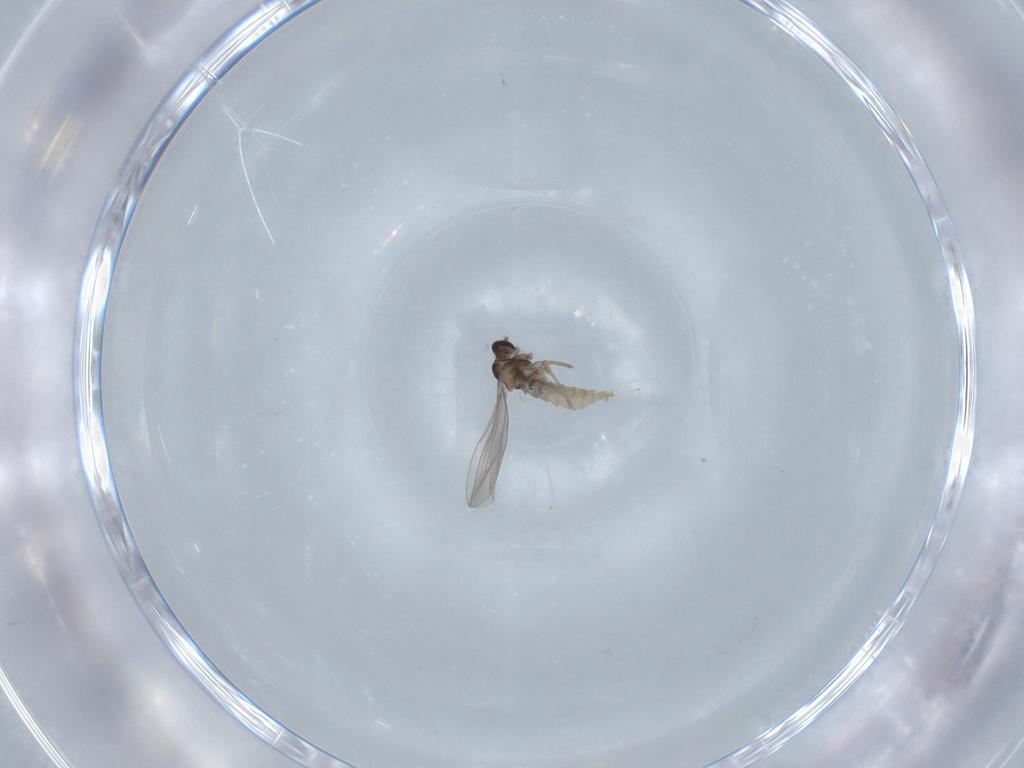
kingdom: Animalia
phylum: Arthropoda
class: Insecta
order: Diptera
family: Cecidomyiidae
